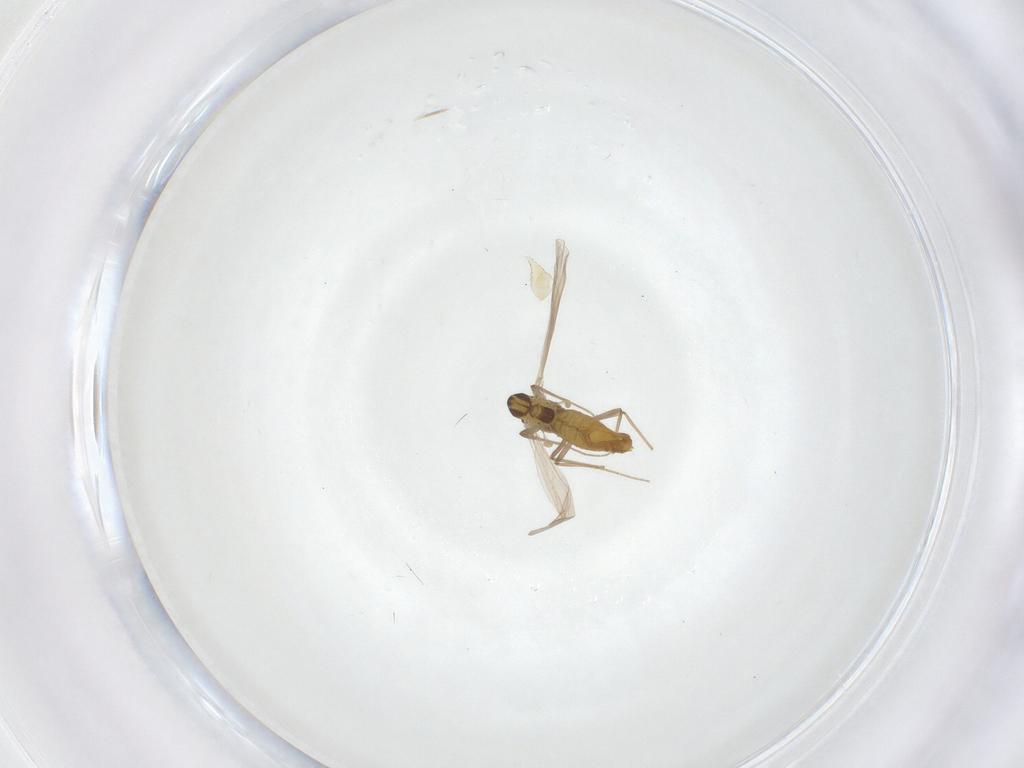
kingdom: Animalia
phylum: Arthropoda
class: Insecta
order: Diptera
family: Chironomidae
